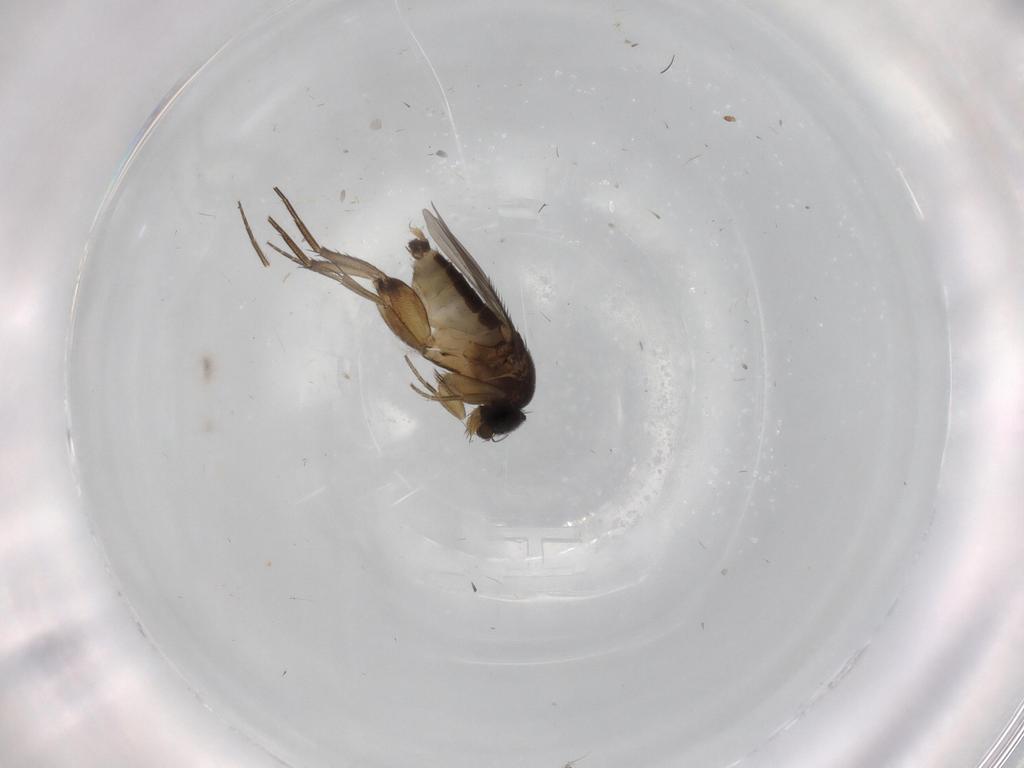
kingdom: Animalia
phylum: Arthropoda
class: Insecta
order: Diptera
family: Phoridae
